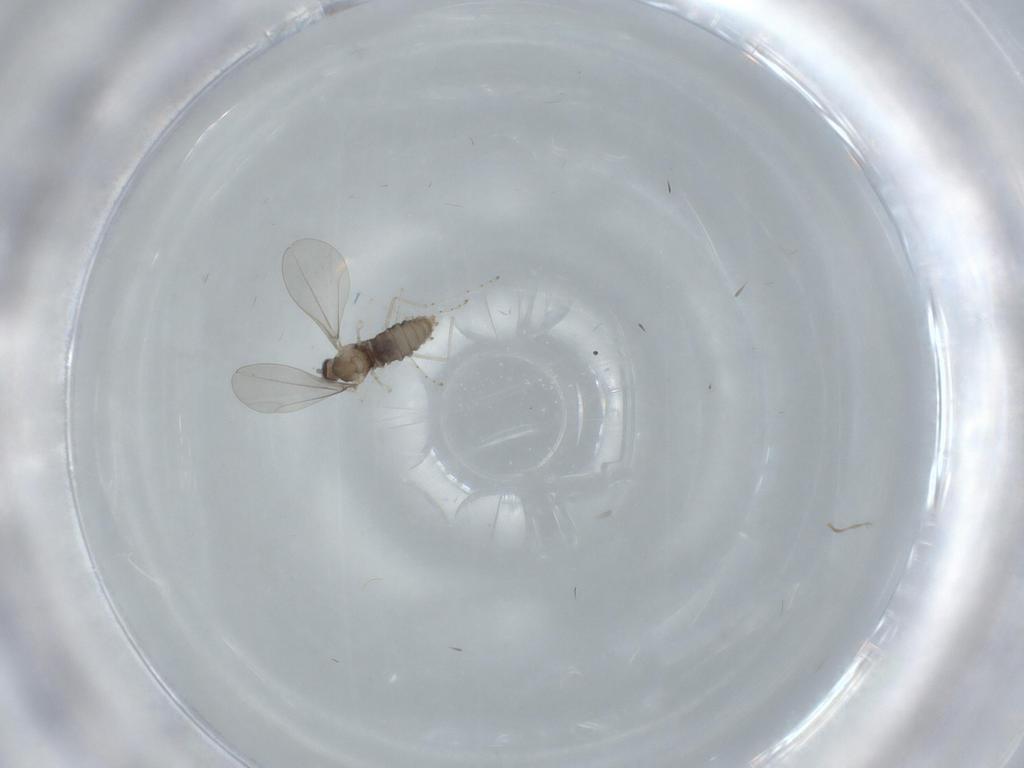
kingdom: Animalia
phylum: Arthropoda
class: Insecta
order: Diptera
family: Cecidomyiidae
